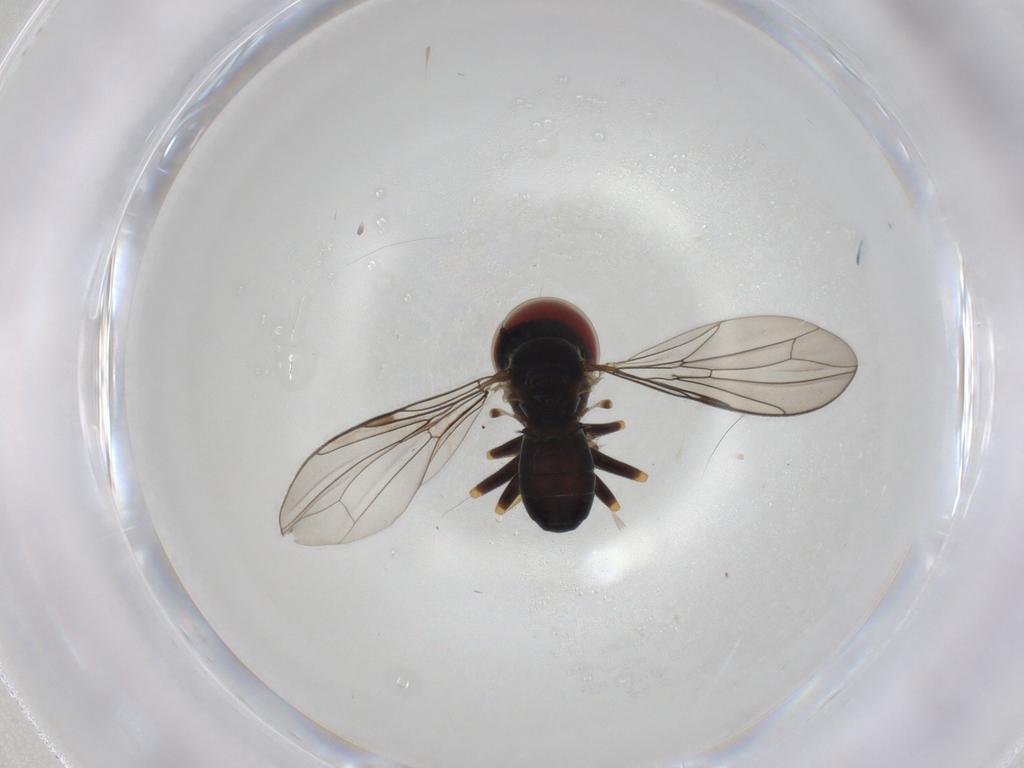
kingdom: Animalia
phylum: Arthropoda
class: Insecta
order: Diptera
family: Pipunculidae
